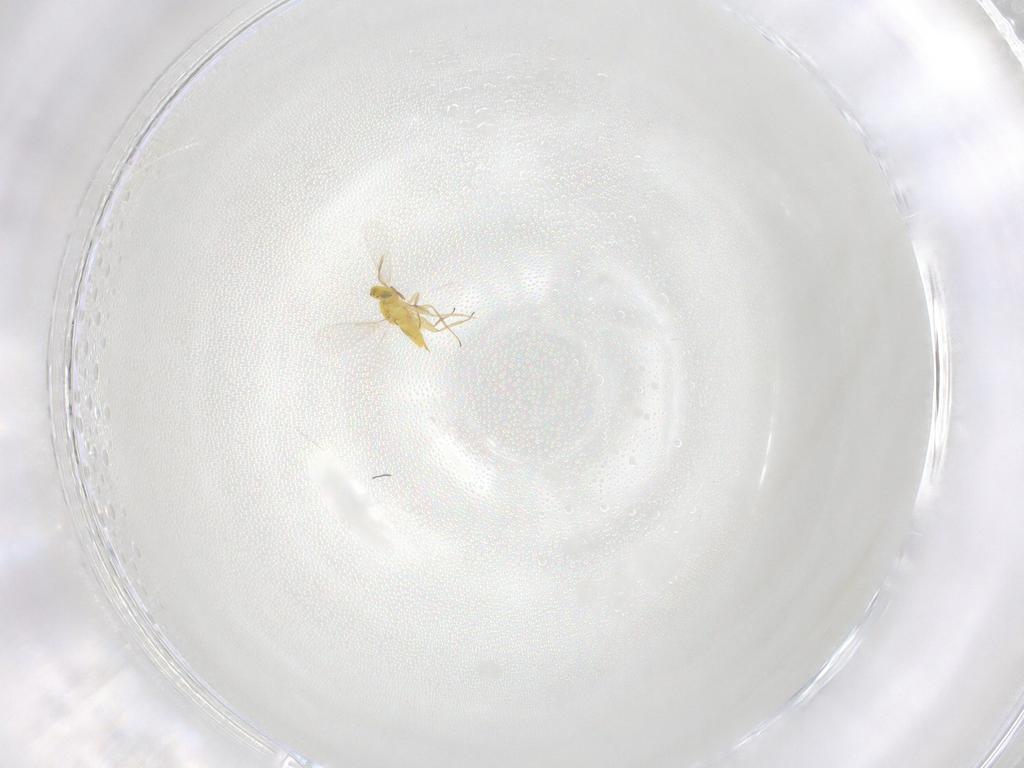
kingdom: Animalia
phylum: Arthropoda
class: Insecta
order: Hymenoptera
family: Aphelinidae
